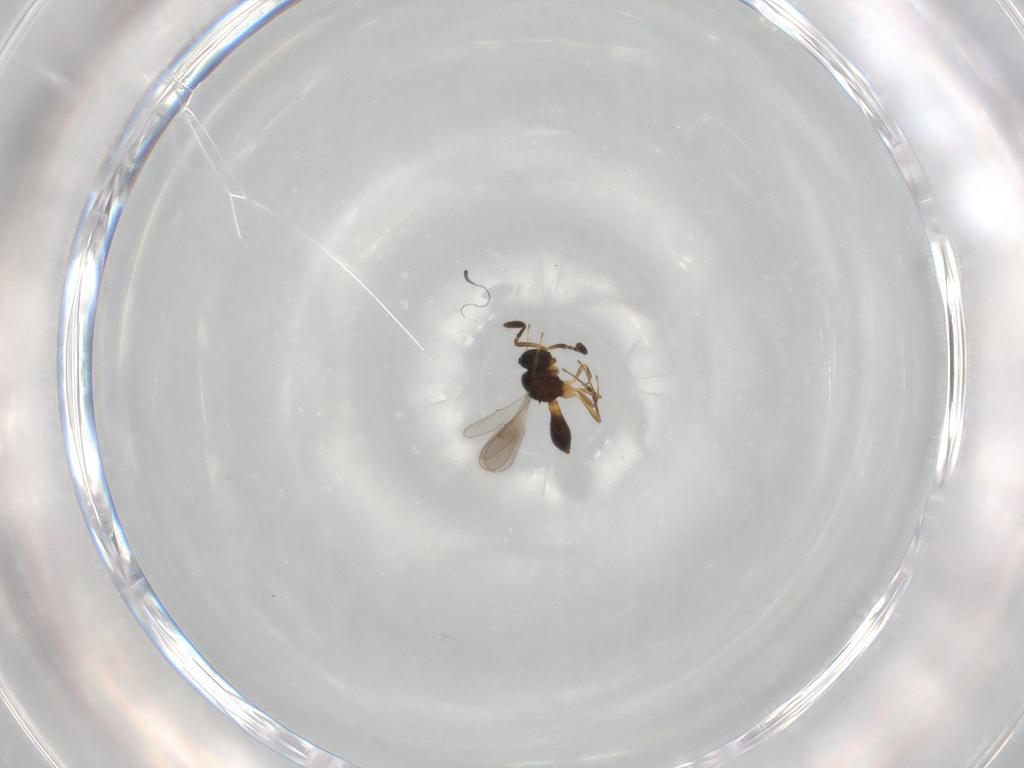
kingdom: Animalia
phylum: Arthropoda
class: Insecta
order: Hymenoptera
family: Scelionidae
